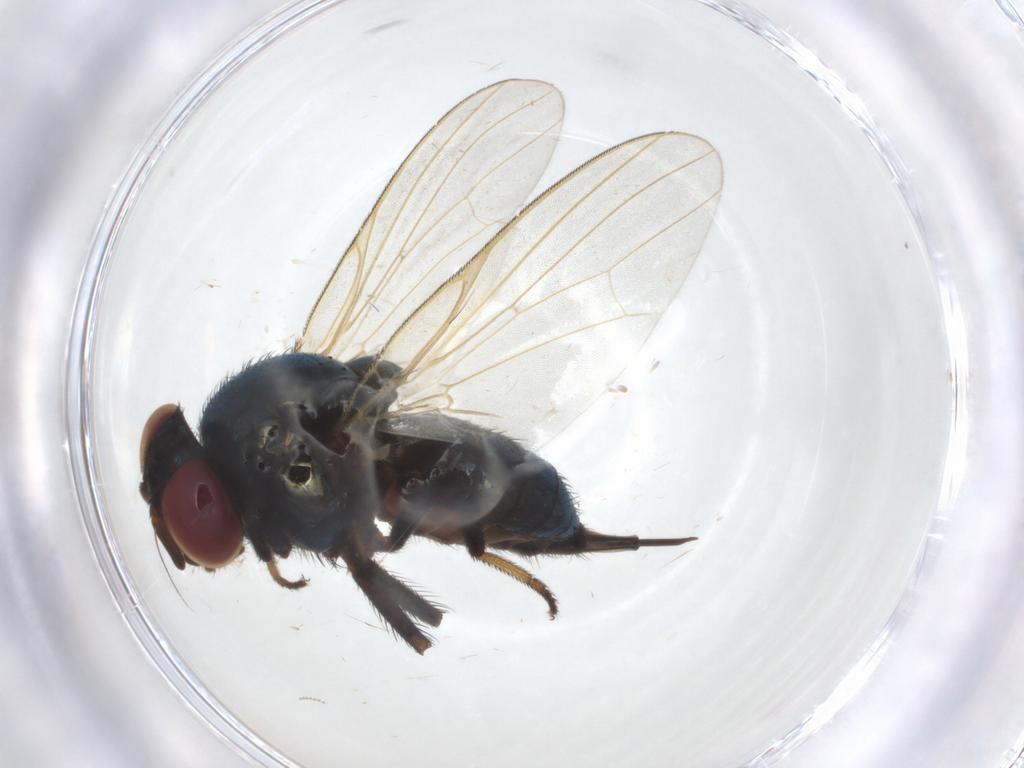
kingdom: Animalia
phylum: Arthropoda
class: Insecta
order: Diptera
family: Lonchaeidae
